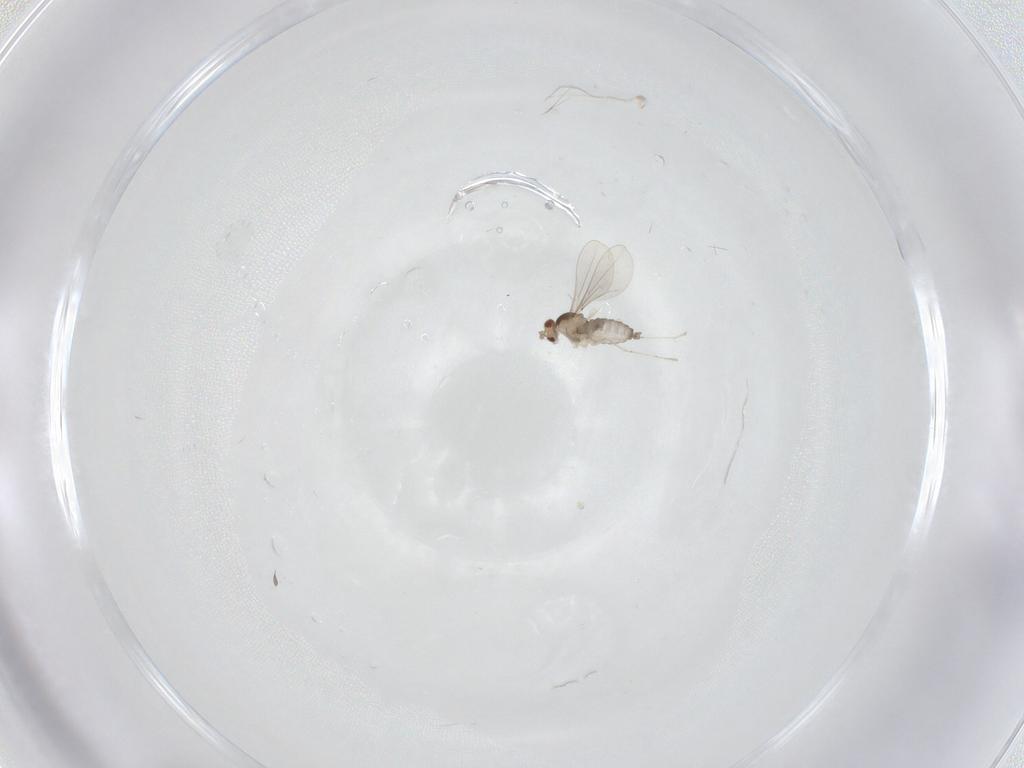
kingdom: Animalia
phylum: Arthropoda
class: Insecta
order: Diptera
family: Cecidomyiidae
